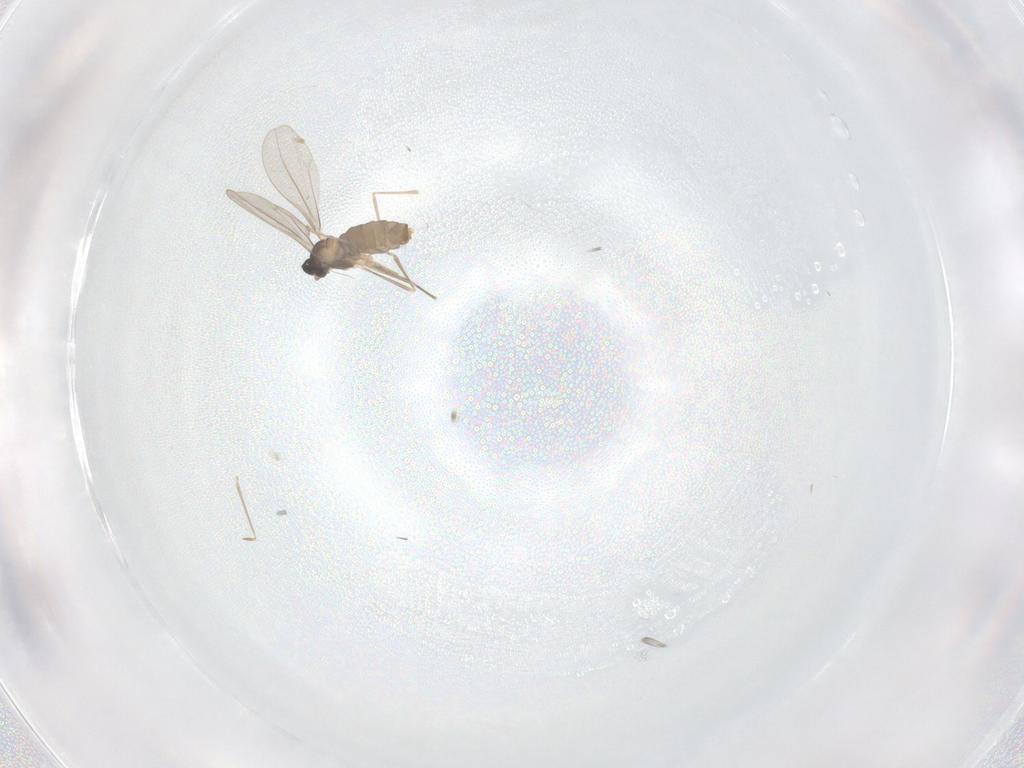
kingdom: Animalia
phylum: Arthropoda
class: Insecta
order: Diptera
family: Cecidomyiidae
